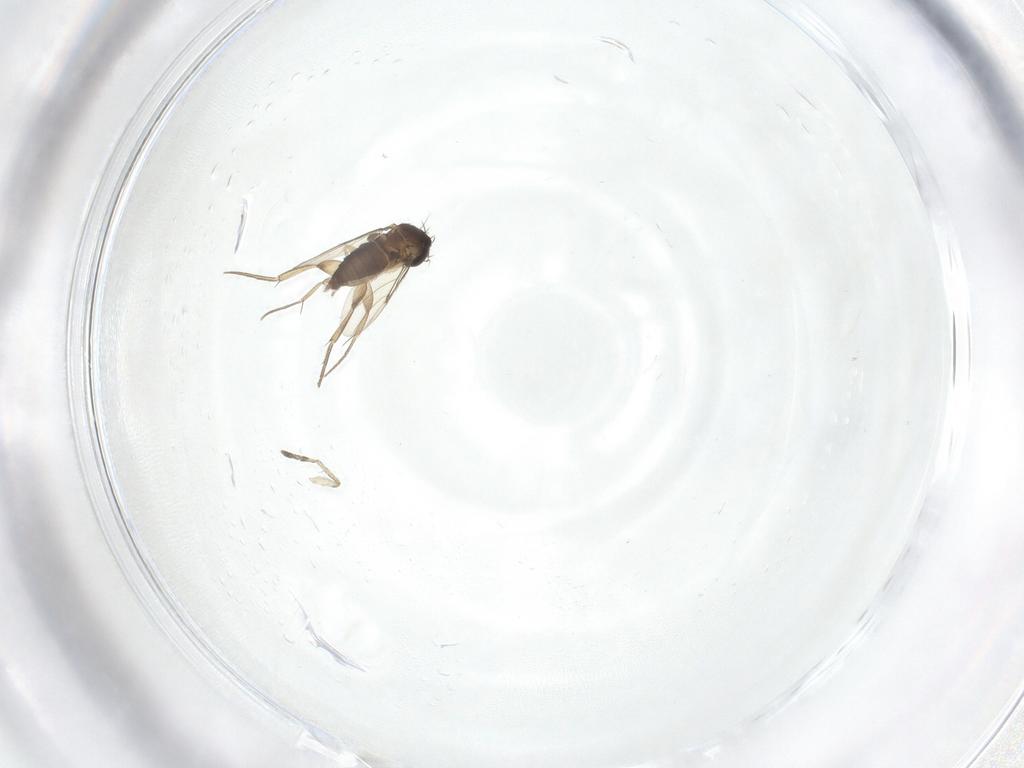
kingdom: Animalia
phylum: Arthropoda
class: Insecta
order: Diptera
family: Phoridae
